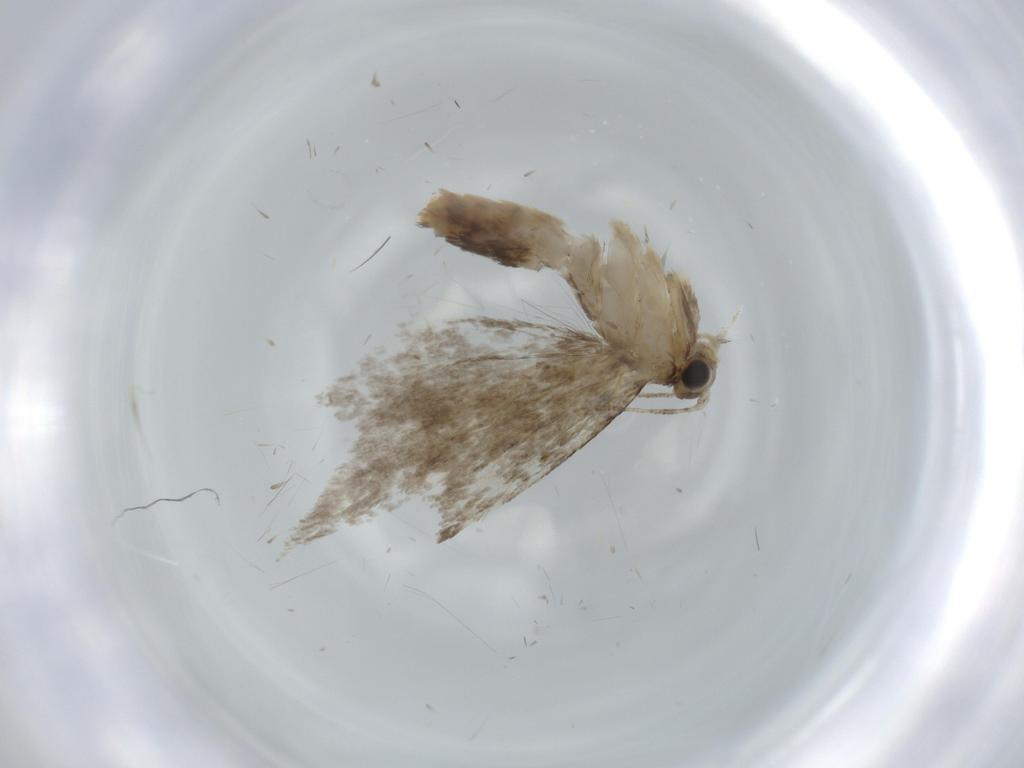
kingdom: Animalia
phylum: Arthropoda
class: Insecta
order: Lepidoptera
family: Tineidae
